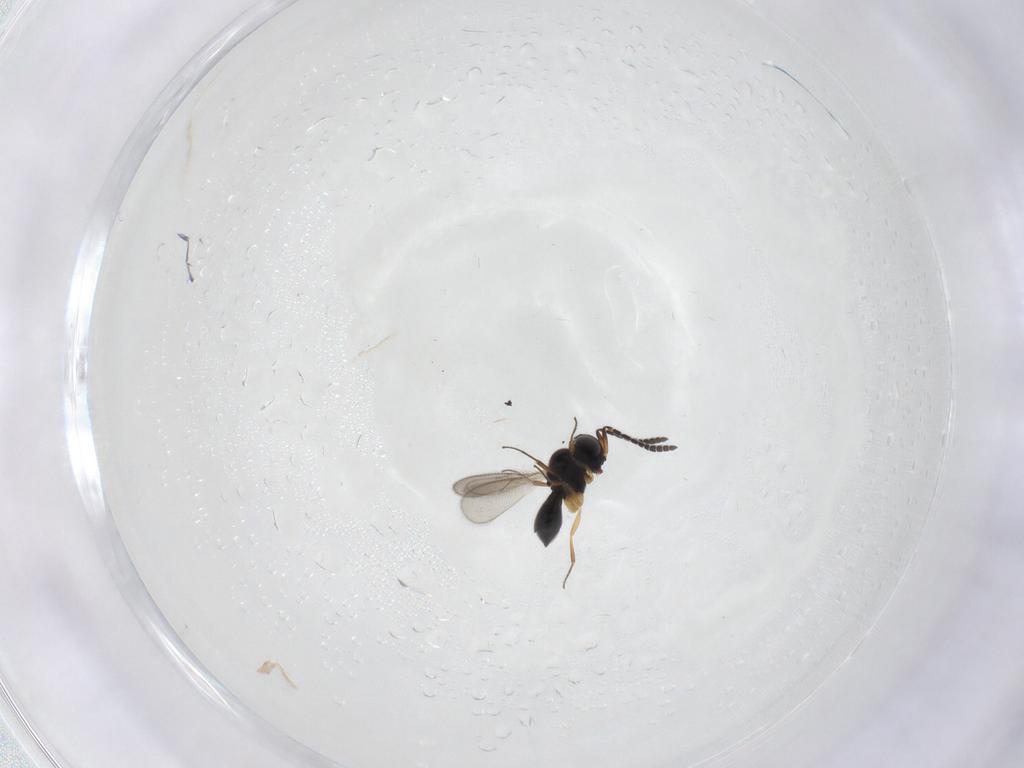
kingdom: Animalia
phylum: Arthropoda
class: Insecta
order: Hymenoptera
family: Scelionidae
